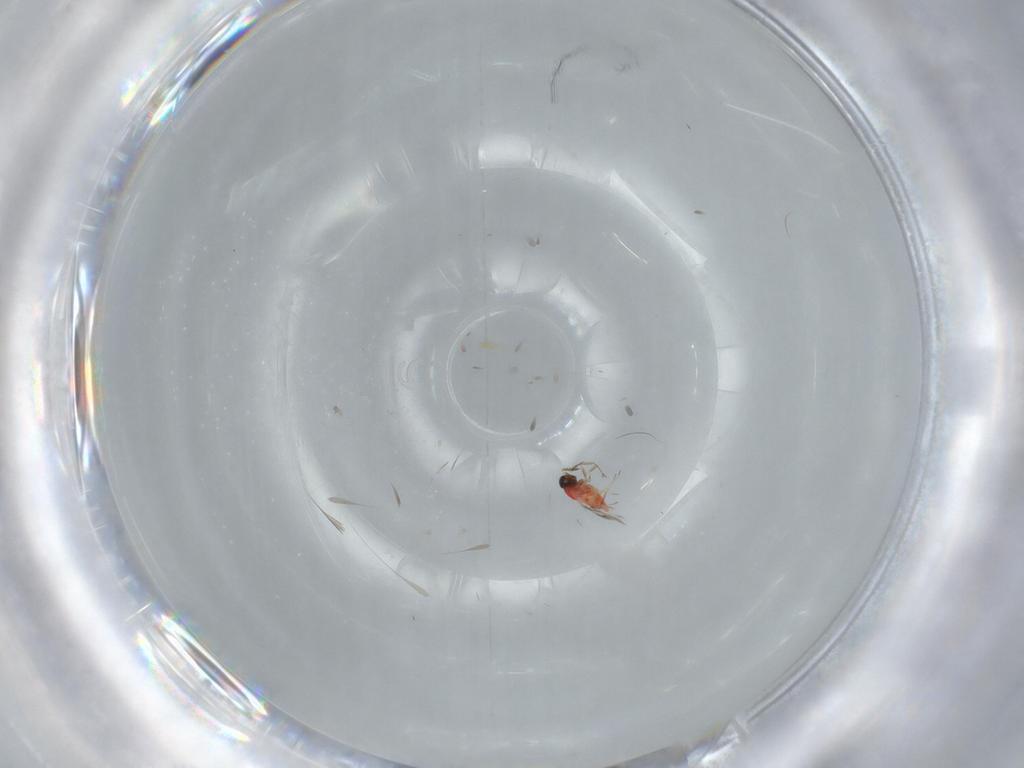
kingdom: Animalia
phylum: Arthropoda
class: Insecta
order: Hymenoptera
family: Trichogrammatidae
